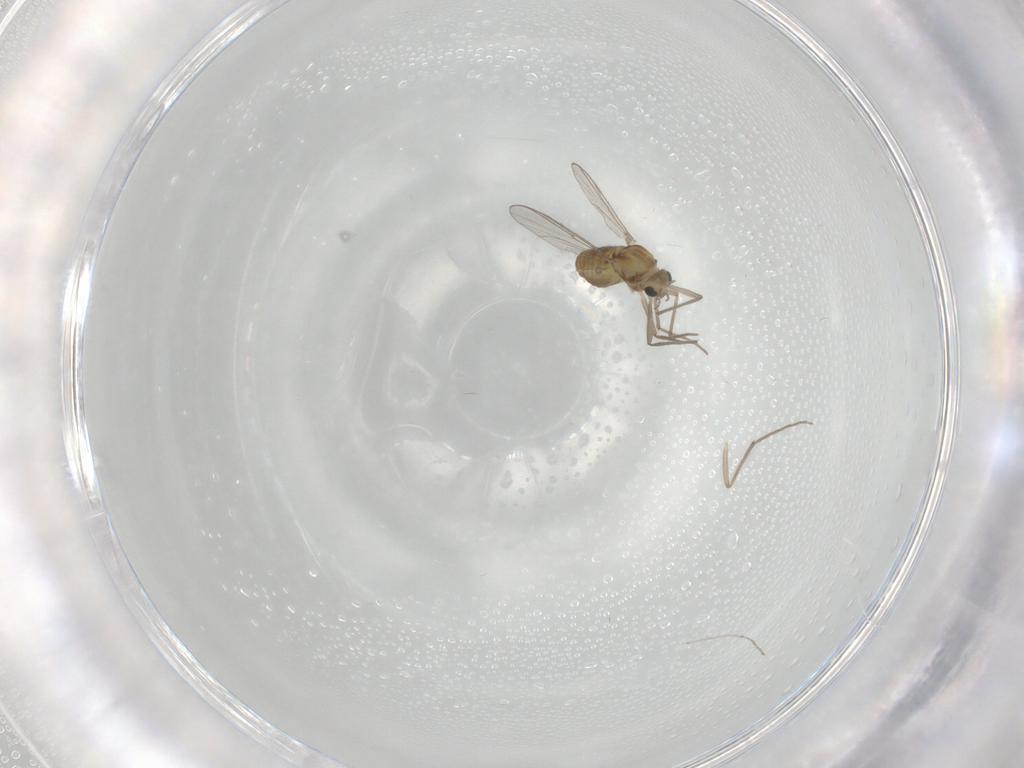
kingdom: Animalia
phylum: Arthropoda
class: Insecta
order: Diptera
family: Chironomidae
